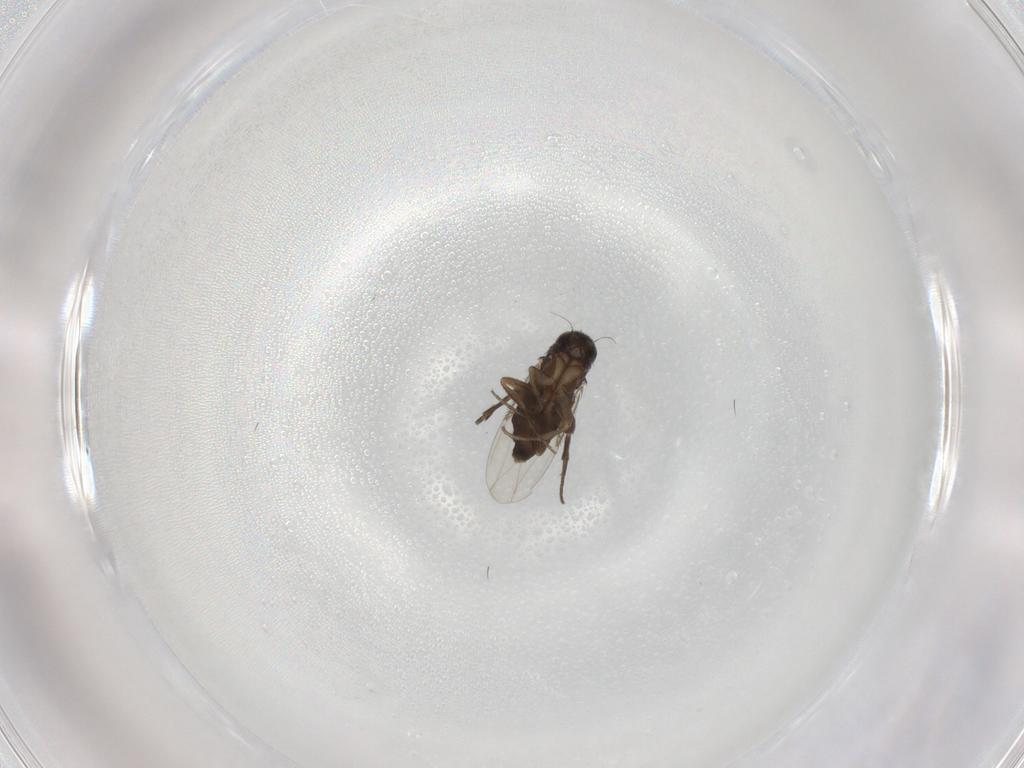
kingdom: Animalia
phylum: Arthropoda
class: Insecta
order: Diptera
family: Phoridae
